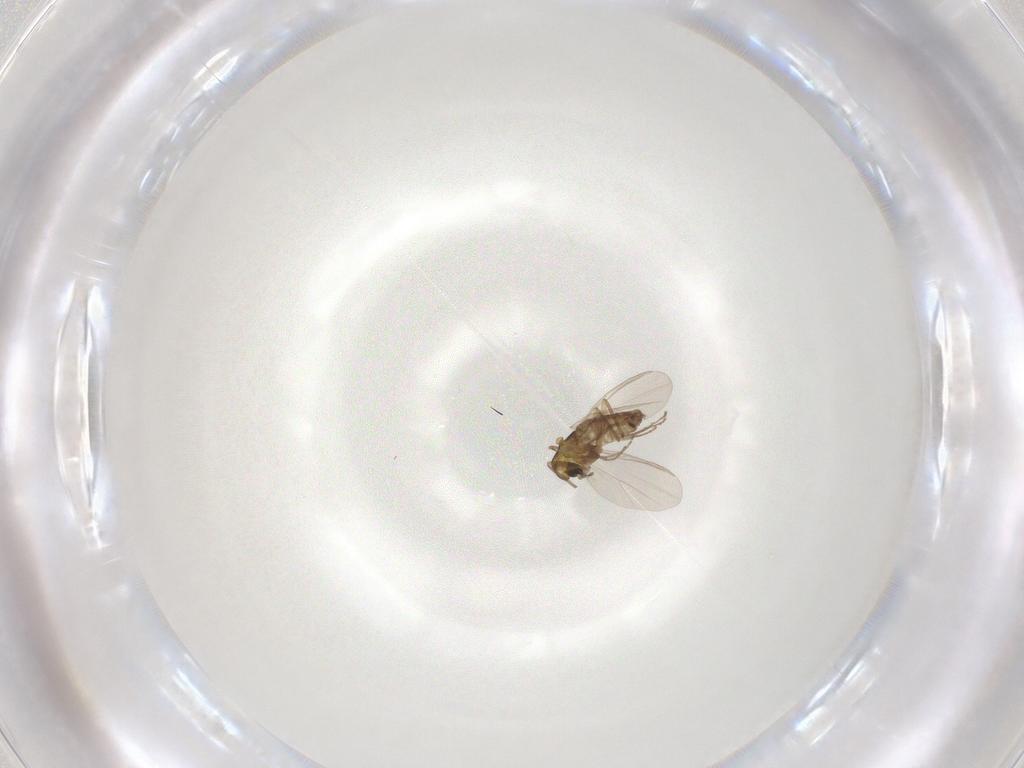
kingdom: Animalia
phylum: Arthropoda
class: Insecta
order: Diptera
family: Chironomidae
